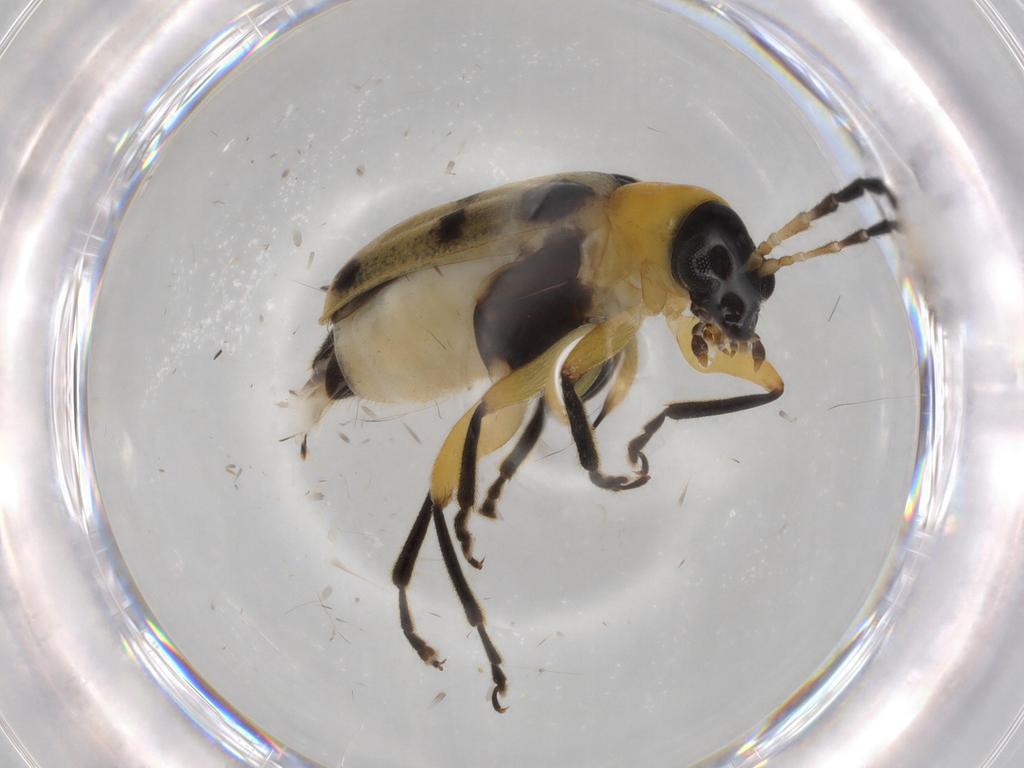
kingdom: Animalia
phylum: Arthropoda
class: Insecta
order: Coleoptera
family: Chrysomelidae
